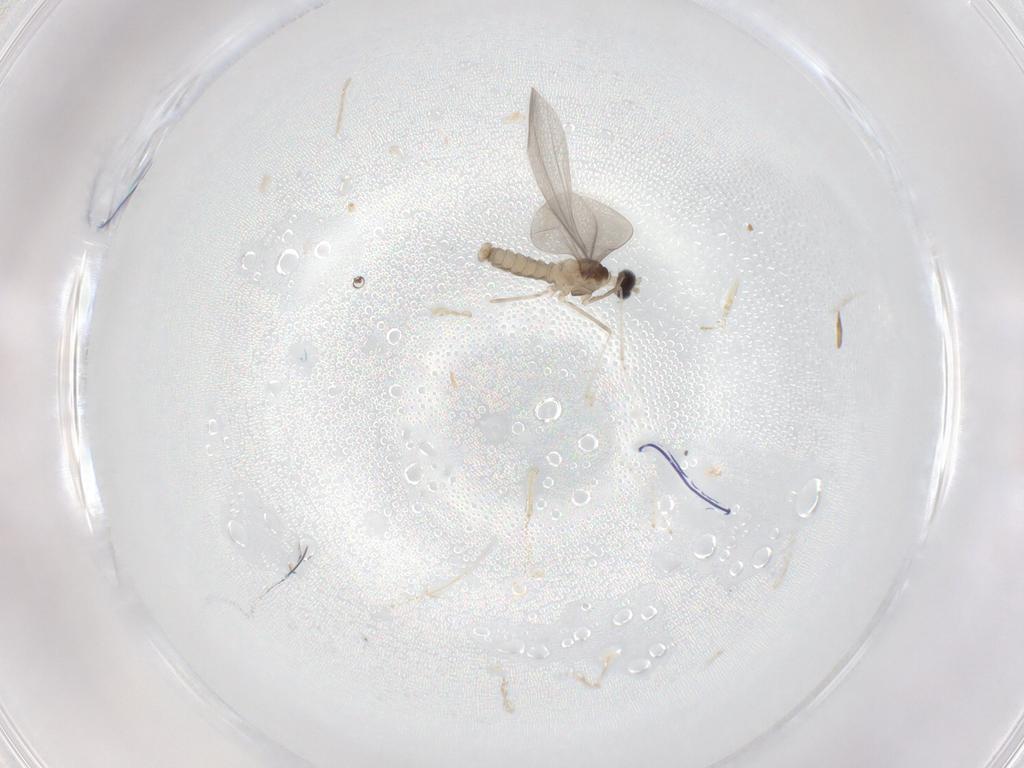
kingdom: Animalia
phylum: Arthropoda
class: Insecta
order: Diptera
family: Cecidomyiidae
